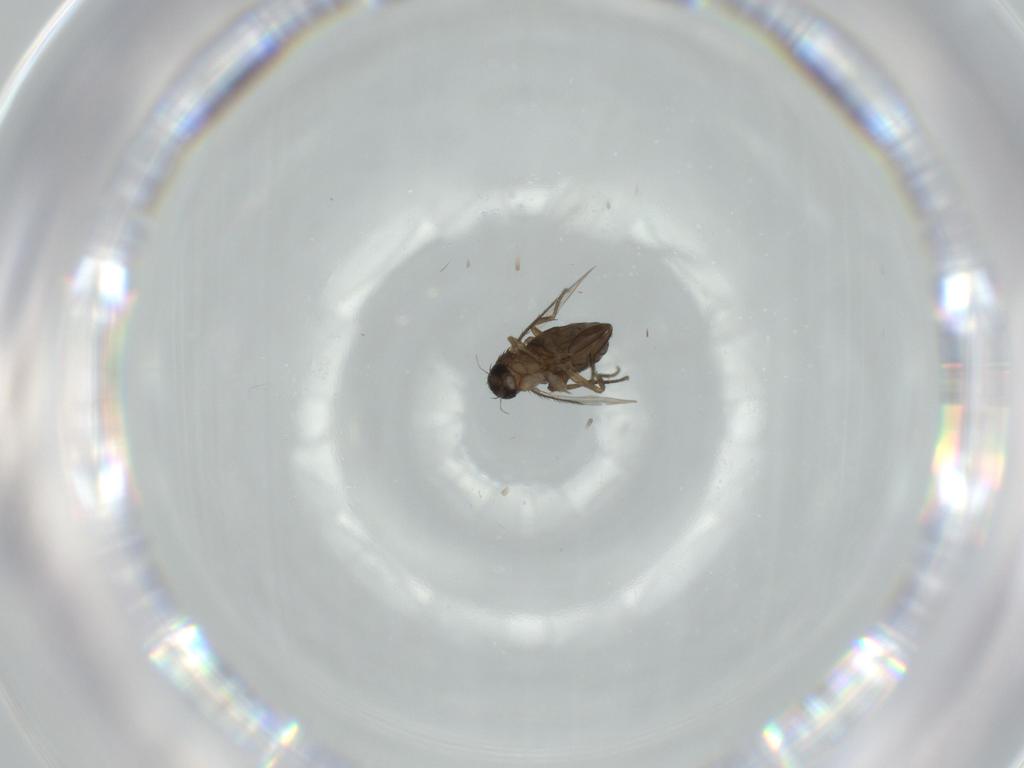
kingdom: Animalia
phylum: Arthropoda
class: Insecta
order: Diptera
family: Phoridae
